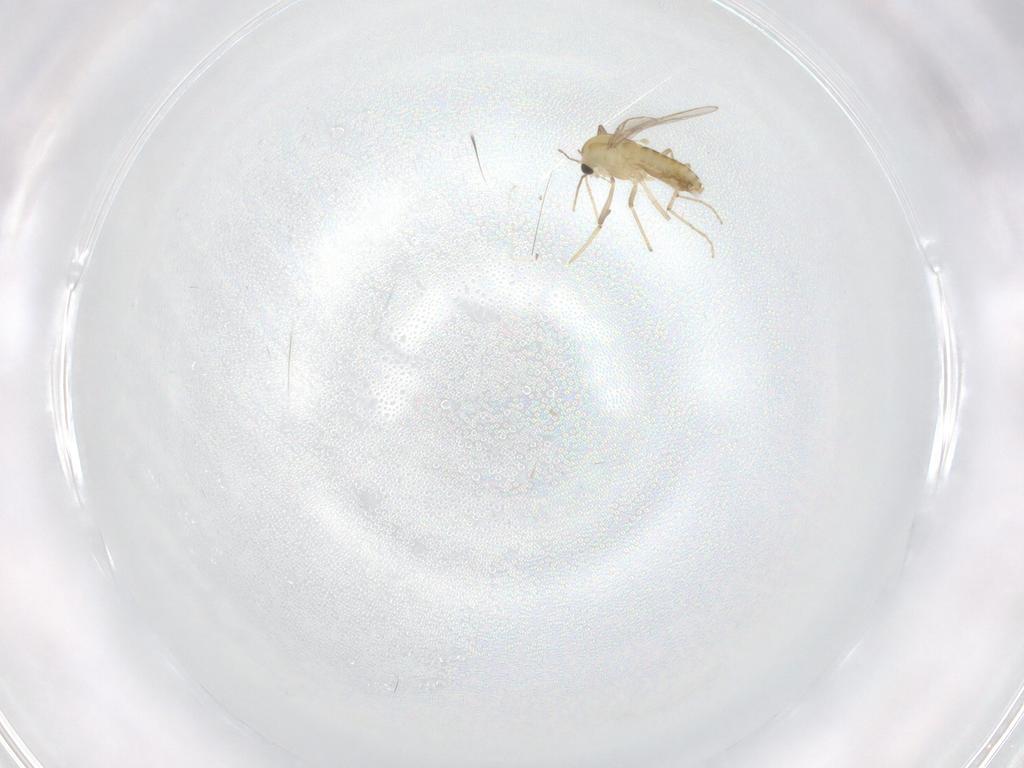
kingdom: Animalia
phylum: Arthropoda
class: Insecta
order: Diptera
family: Chironomidae
